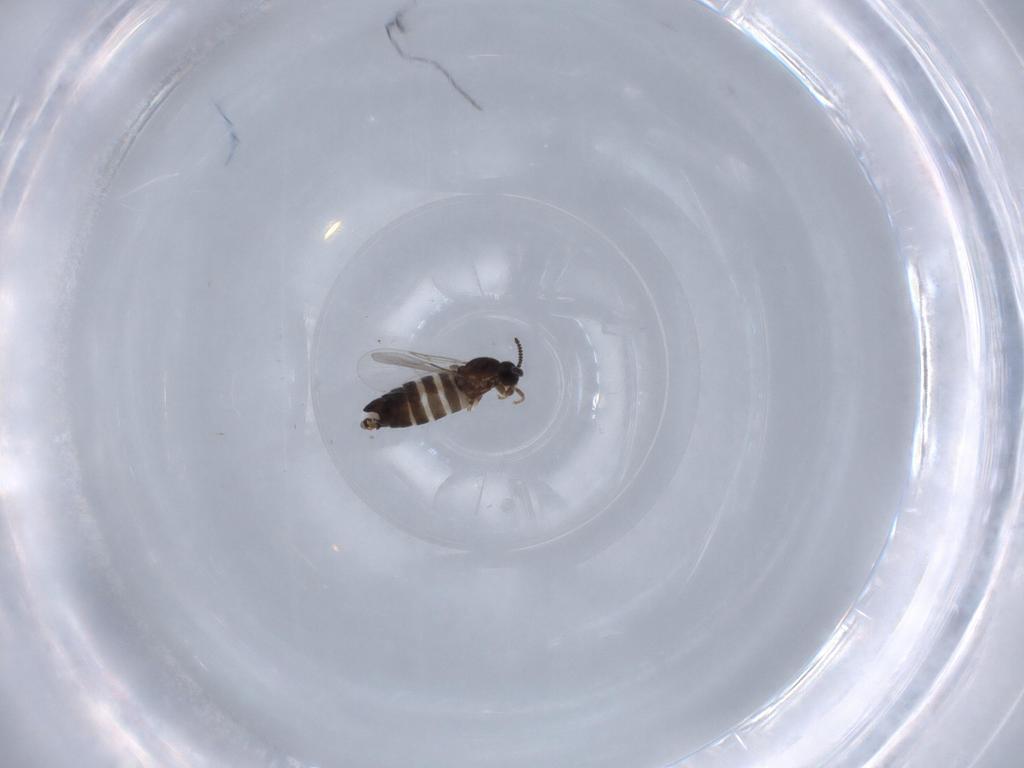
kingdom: Animalia
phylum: Arthropoda
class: Insecta
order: Diptera
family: Scatopsidae
